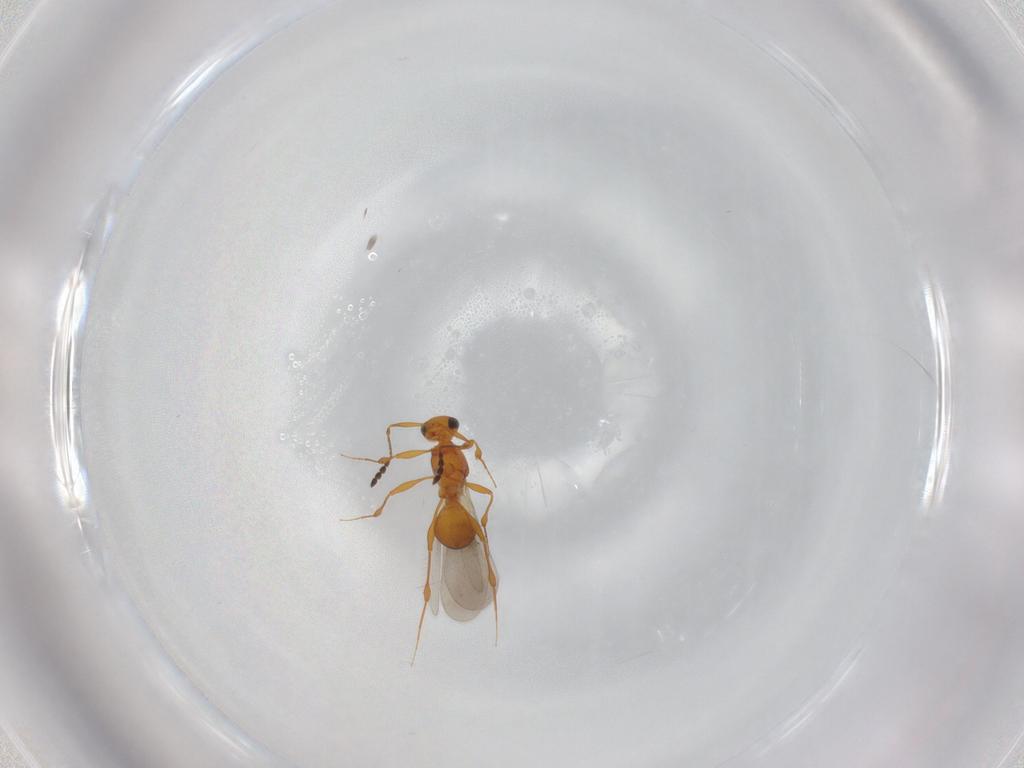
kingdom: Animalia
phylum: Arthropoda
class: Insecta
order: Hymenoptera
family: Platygastridae
